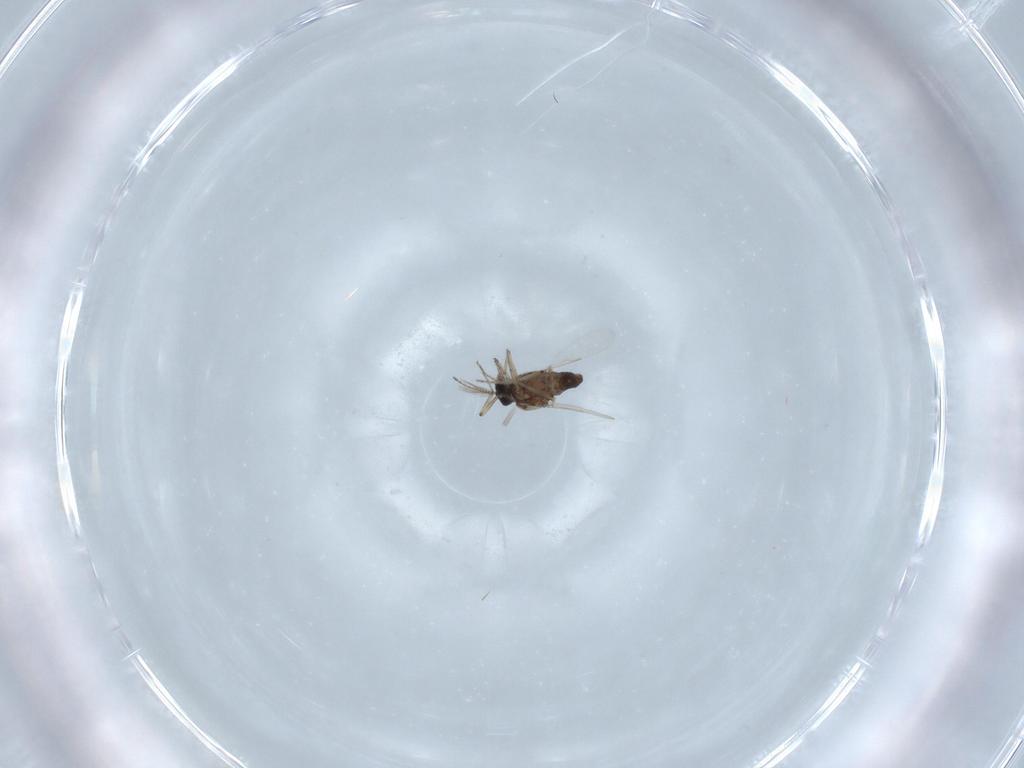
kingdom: Animalia
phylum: Arthropoda
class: Insecta
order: Diptera
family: Ceratopogonidae
